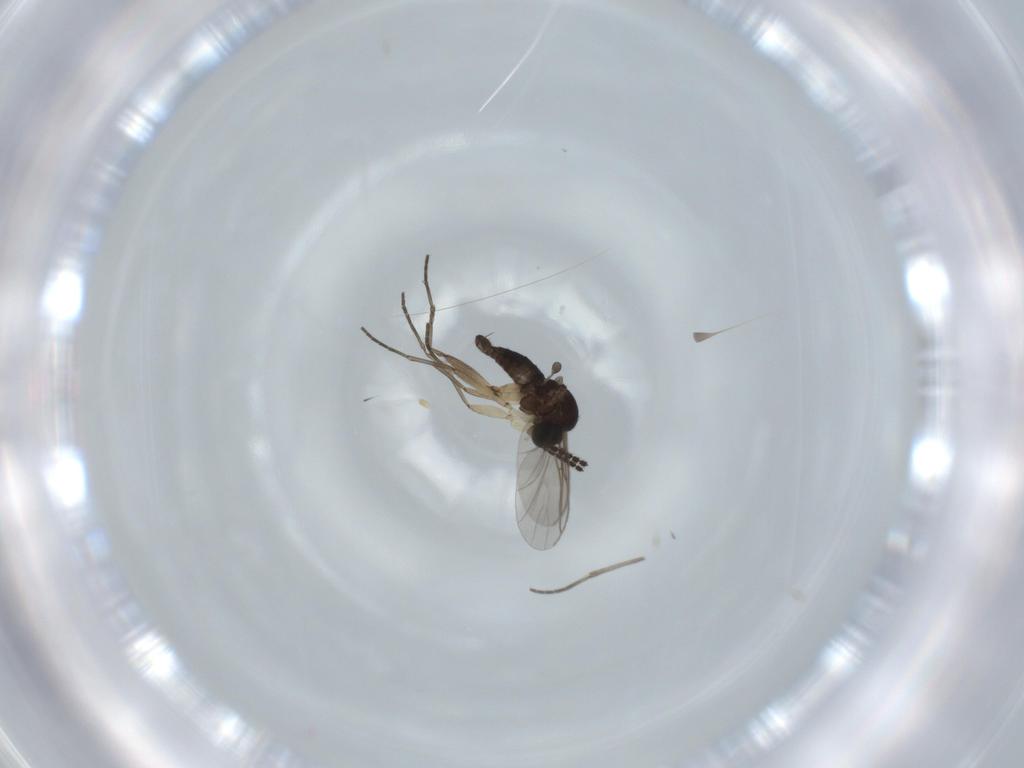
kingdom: Animalia
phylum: Arthropoda
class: Insecta
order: Diptera
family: Sciaridae
